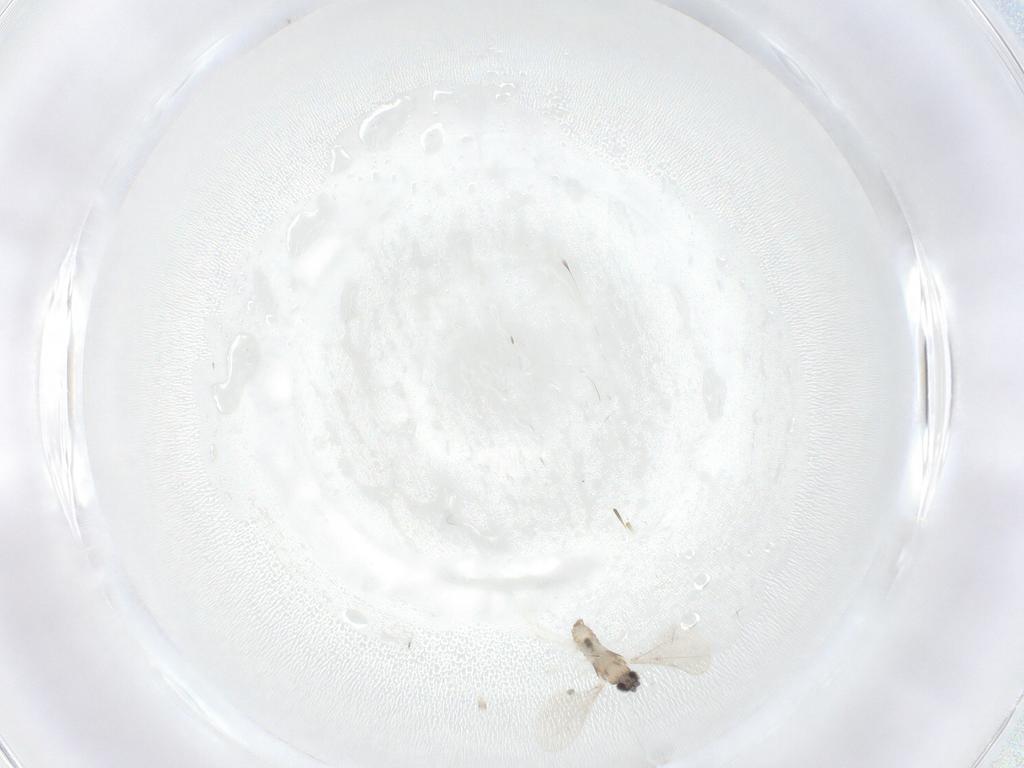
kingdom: Animalia
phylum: Arthropoda
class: Insecta
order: Diptera
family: Cecidomyiidae
